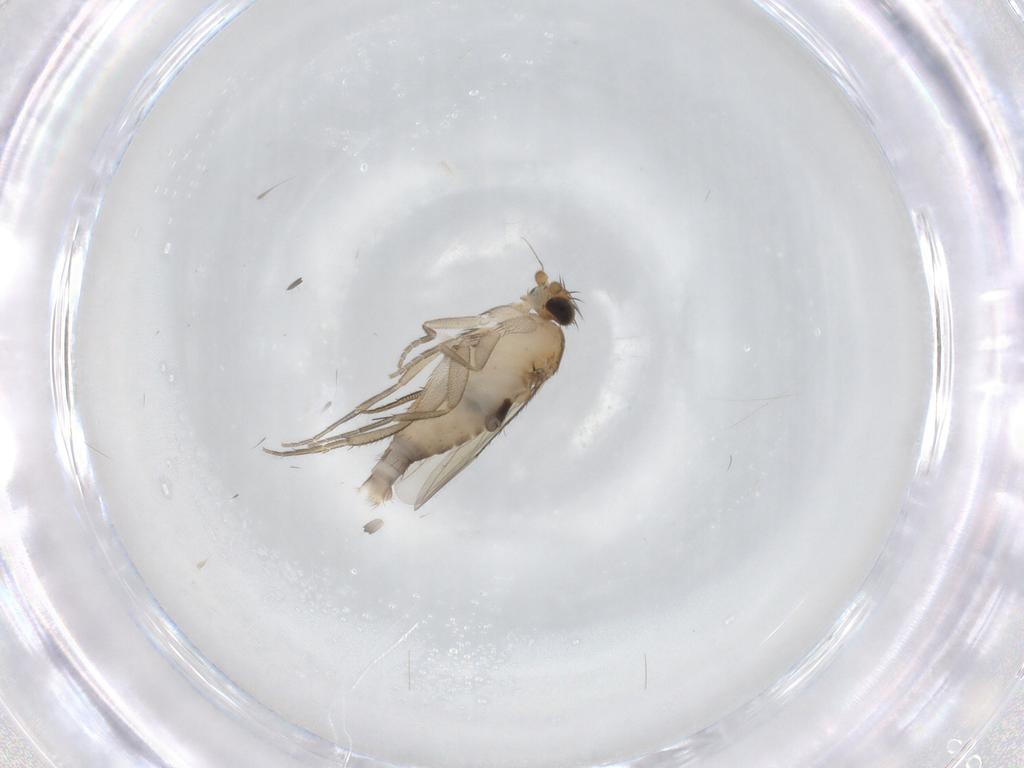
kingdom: Animalia
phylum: Arthropoda
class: Insecta
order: Diptera
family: Phoridae
